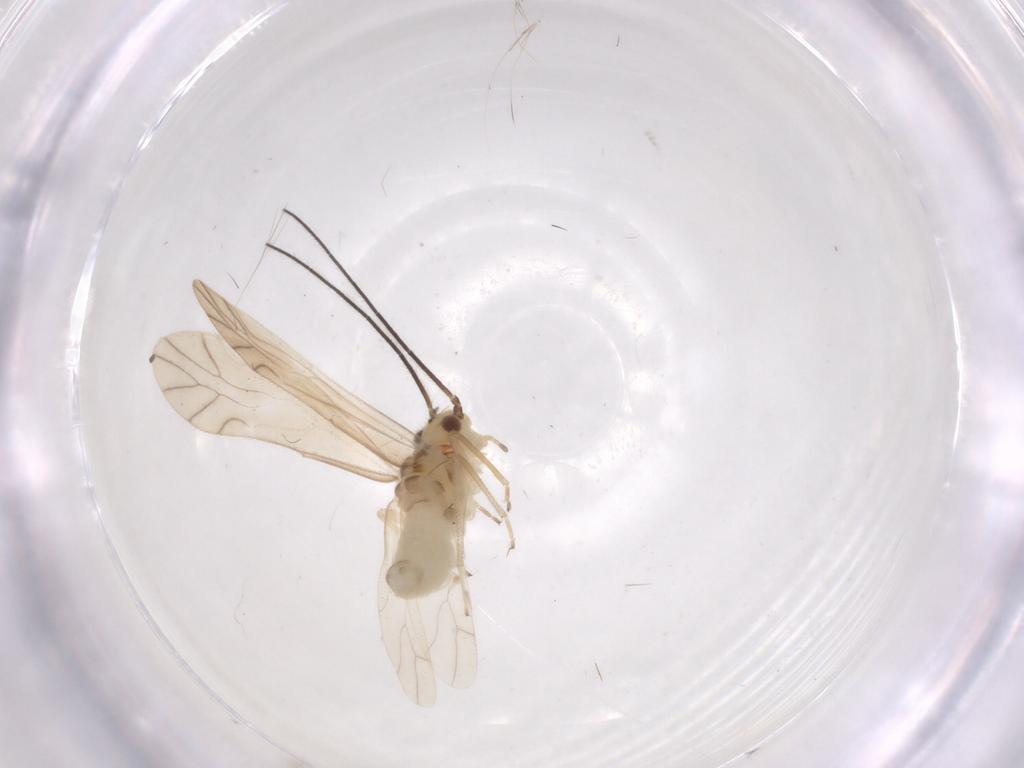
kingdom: Animalia
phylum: Arthropoda
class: Insecta
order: Psocodea
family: Caeciliusidae
